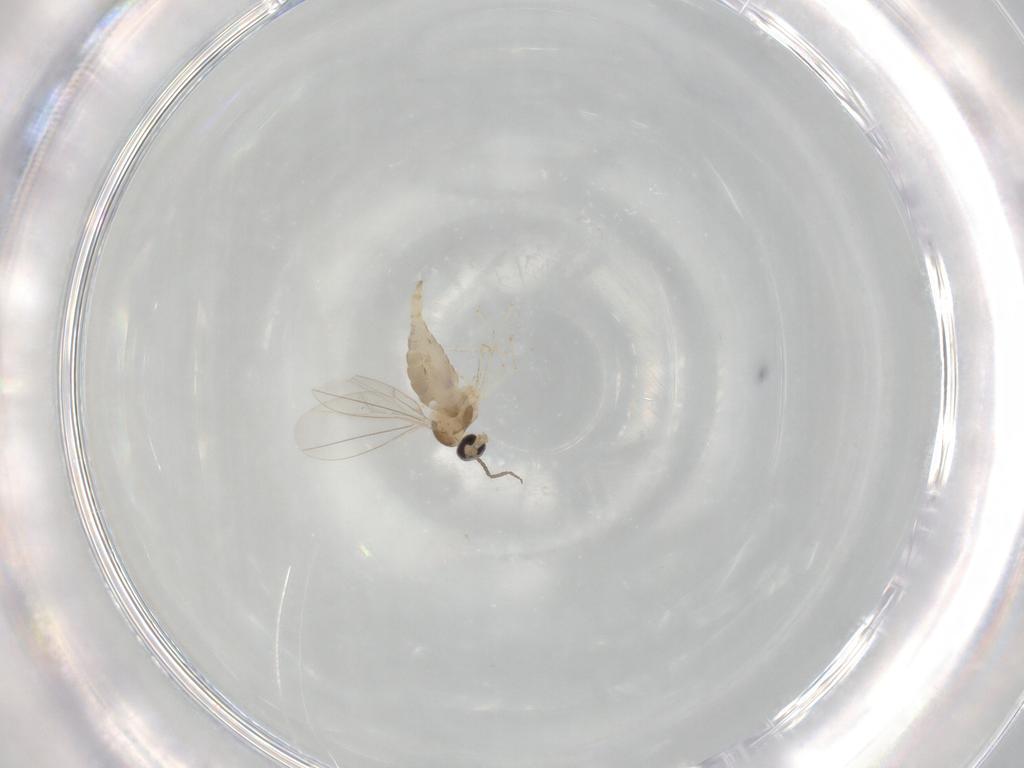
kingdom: Animalia
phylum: Arthropoda
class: Insecta
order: Diptera
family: Cecidomyiidae
